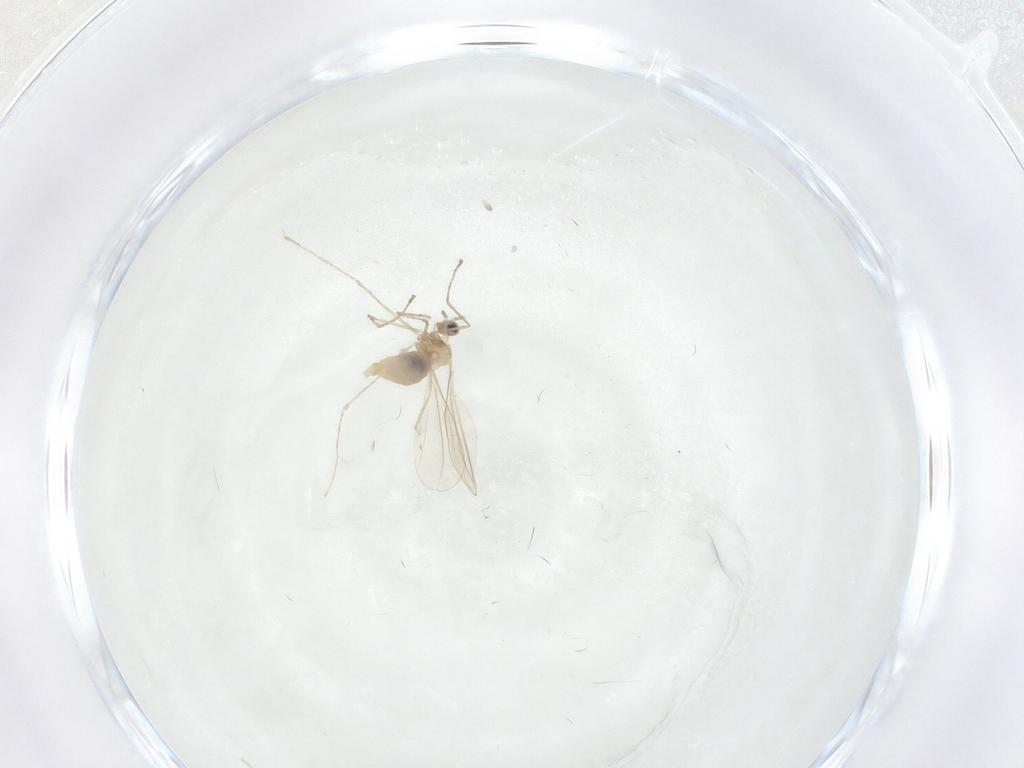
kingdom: Animalia
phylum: Arthropoda
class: Insecta
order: Diptera
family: Cecidomyiidae
